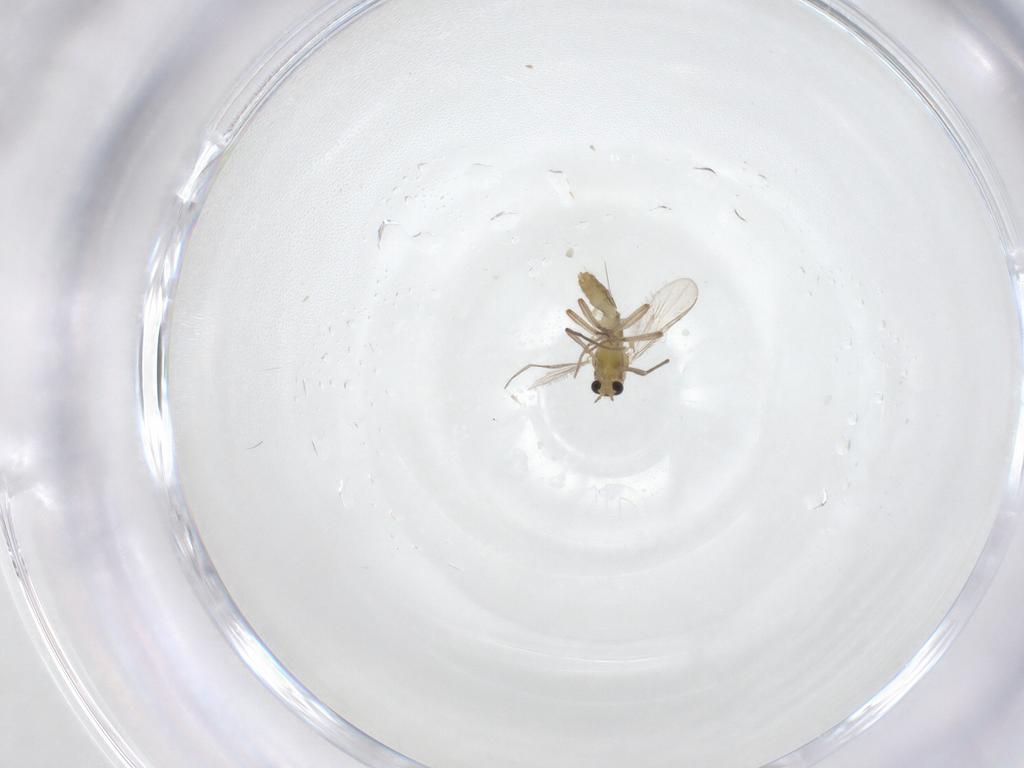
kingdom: Animalia
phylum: Arthropoda
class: Insecta
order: Diptera
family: Chironomidae
